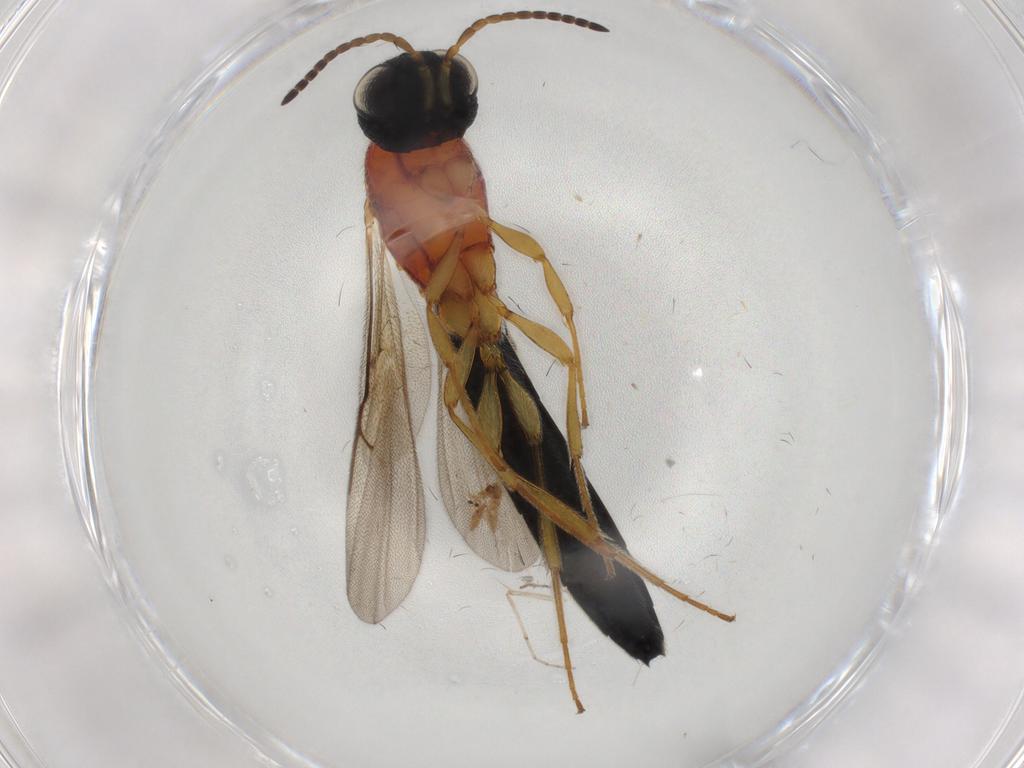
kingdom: Animalia
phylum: Arthropoda
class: Insecta
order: Hymenoptera
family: Scelionidae
